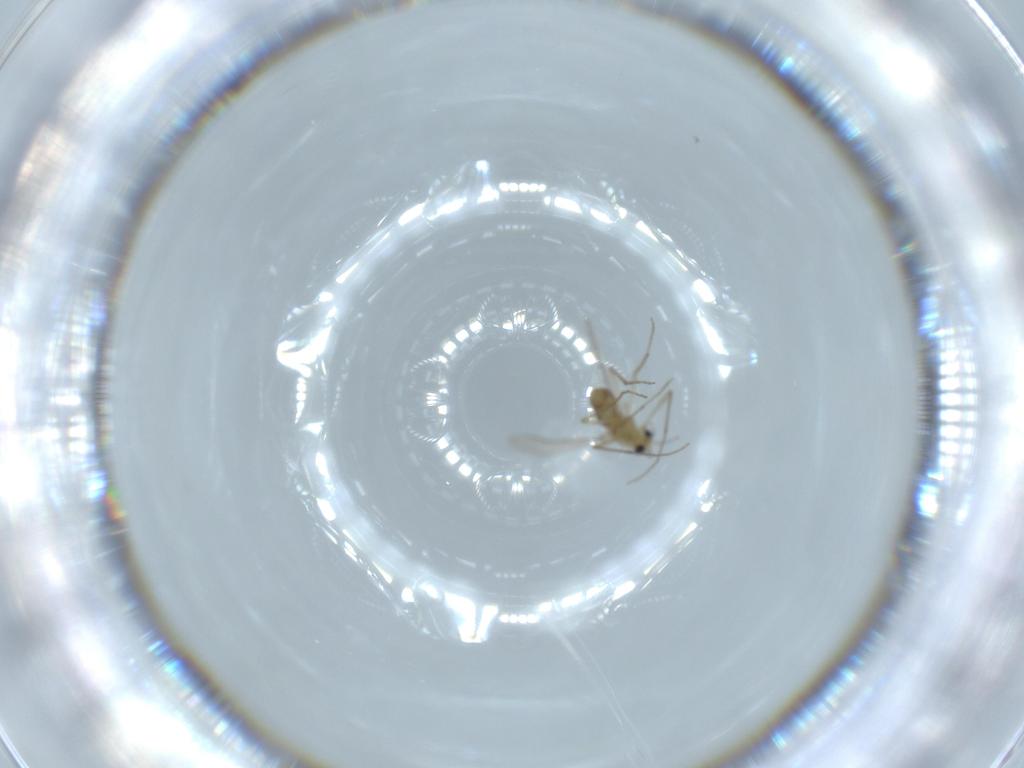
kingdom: Animalia
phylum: Arthropoda
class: Insecta
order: Diptera
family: Chironomidae
